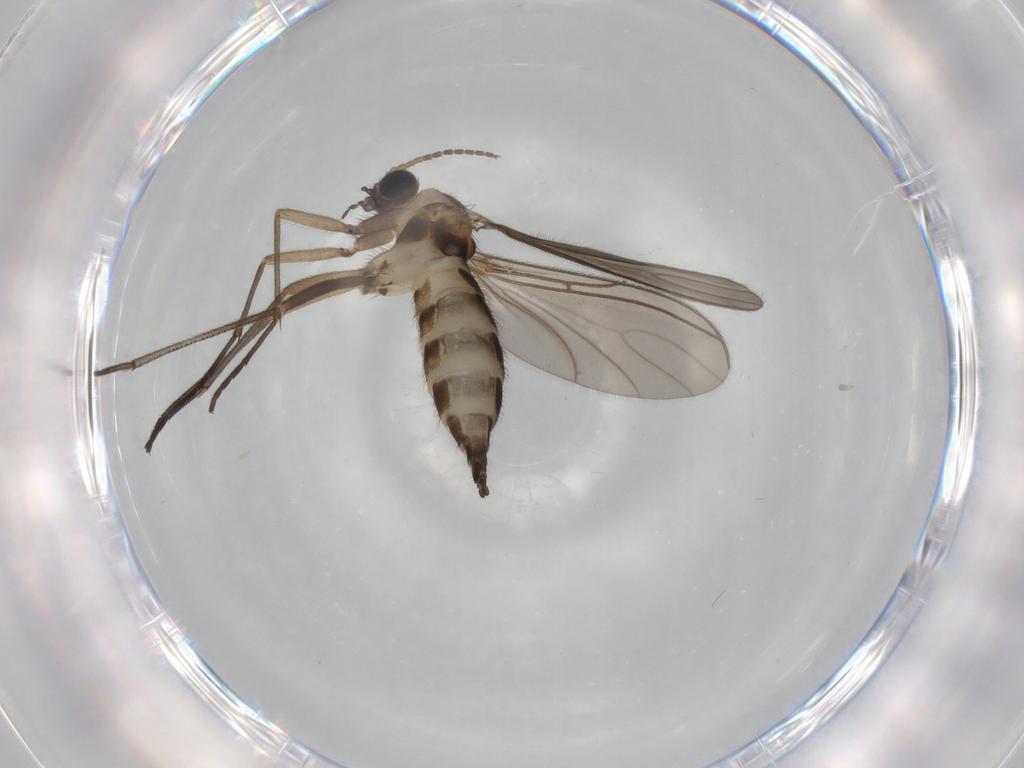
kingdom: Animalia
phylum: Arthropoda
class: Insecta
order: Diptera
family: Sciaridae
